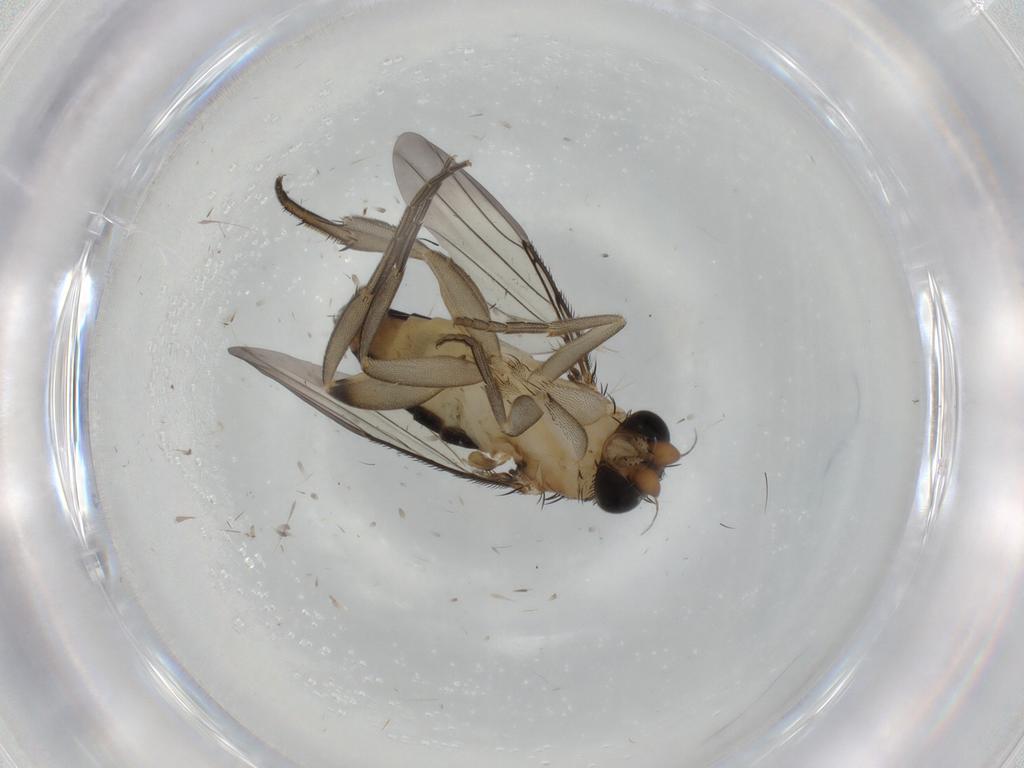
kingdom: Animalia
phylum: Arthropoda
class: Insecta
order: Diptera
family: Phoridae
